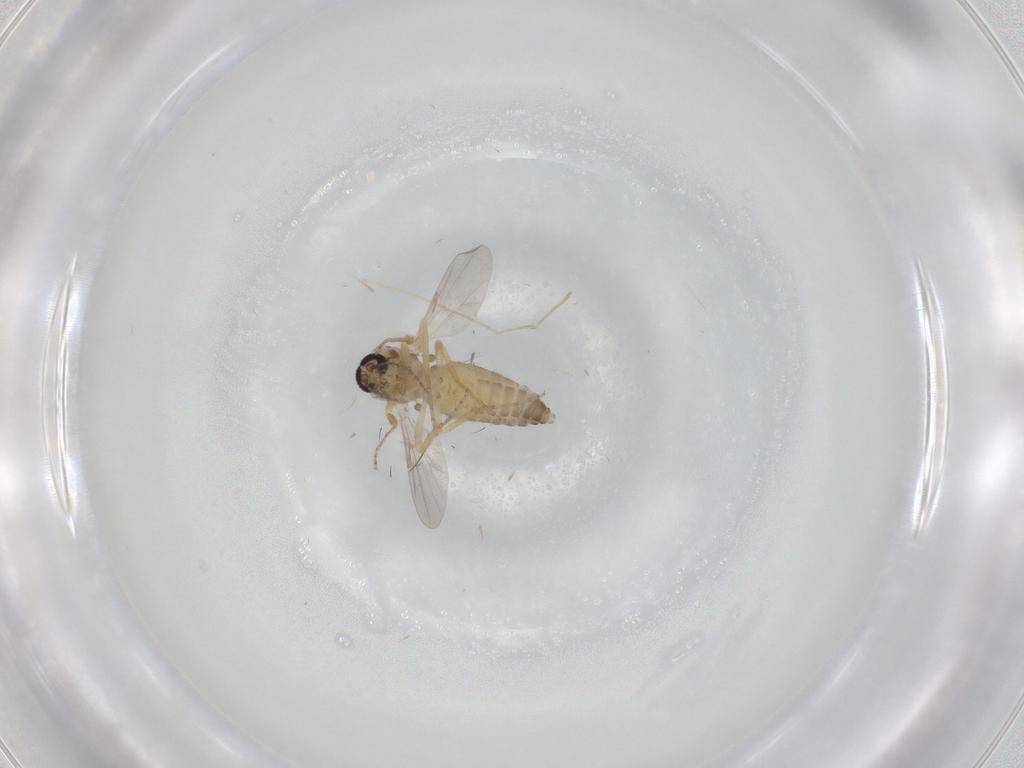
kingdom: Animalia
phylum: Arthropoda
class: Insecta
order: Diptera
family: Ceratopogonidae
